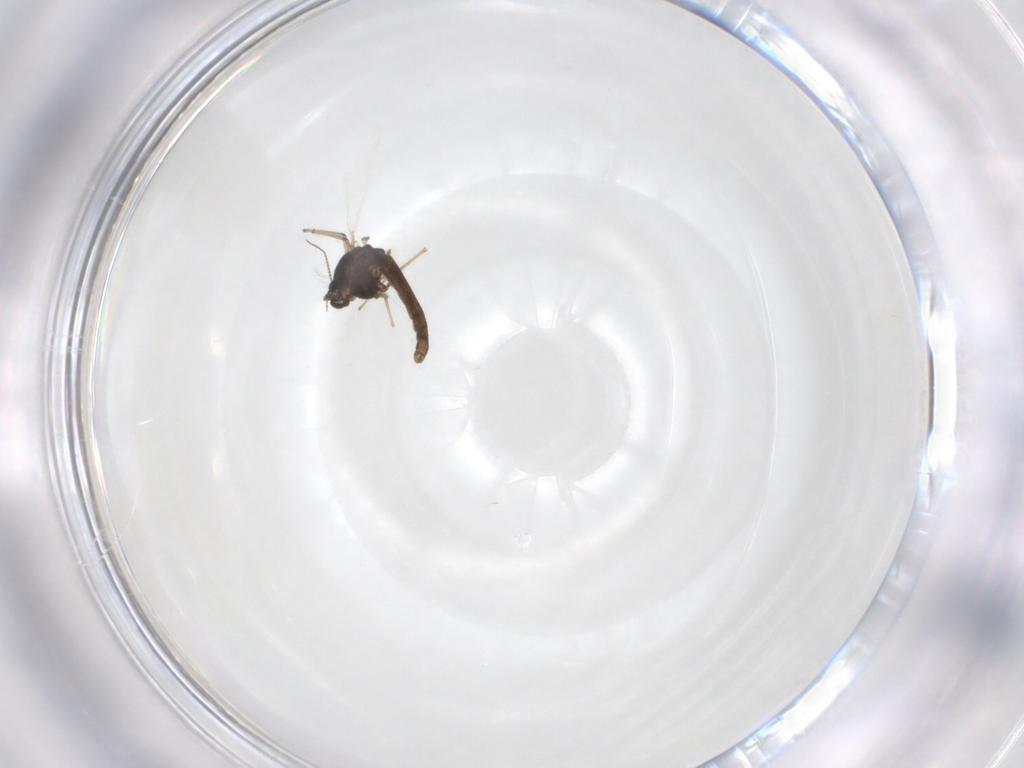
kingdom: Animalia
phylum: Arthropoda
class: Insecta
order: Diptera
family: Chironomidae
